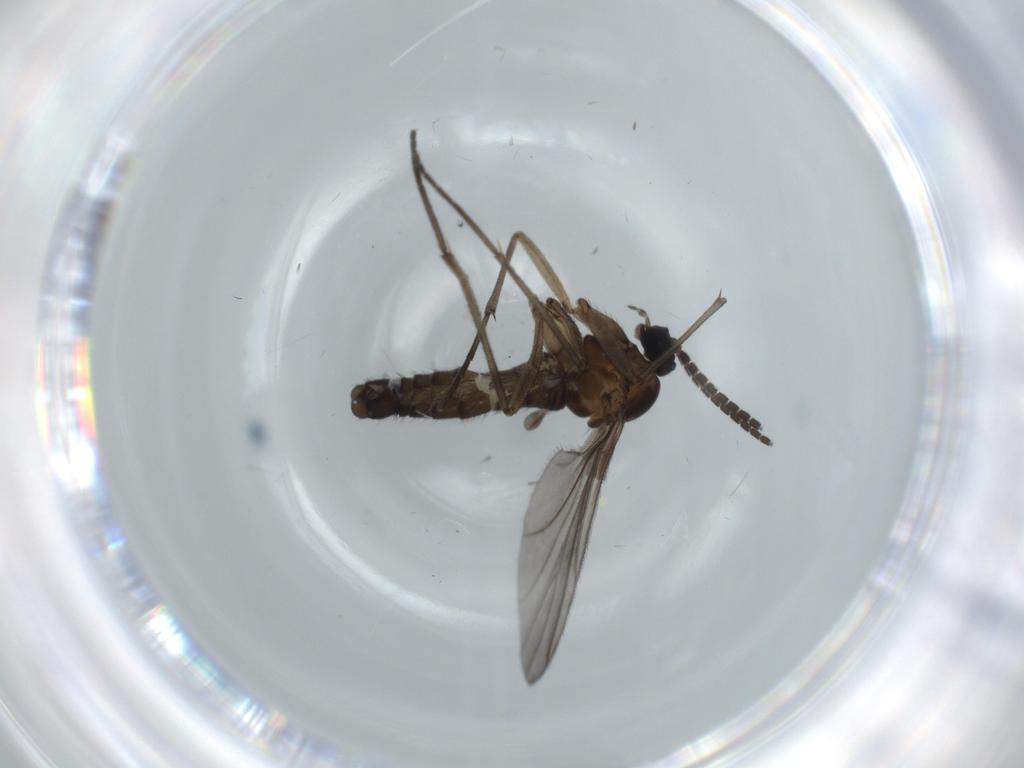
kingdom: Animalia
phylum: Arthropoda
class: Insecta
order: Diptera
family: Sciaridae
